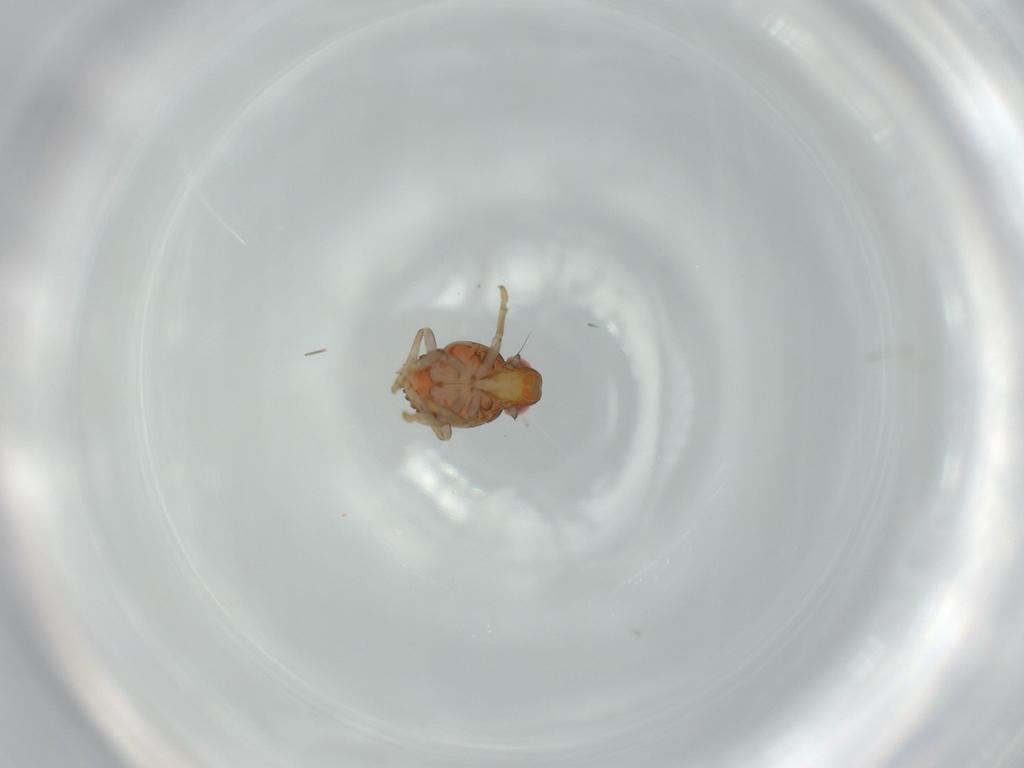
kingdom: Animalia
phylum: Arthropoda
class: Insecta
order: Hemiptera
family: Issidae
